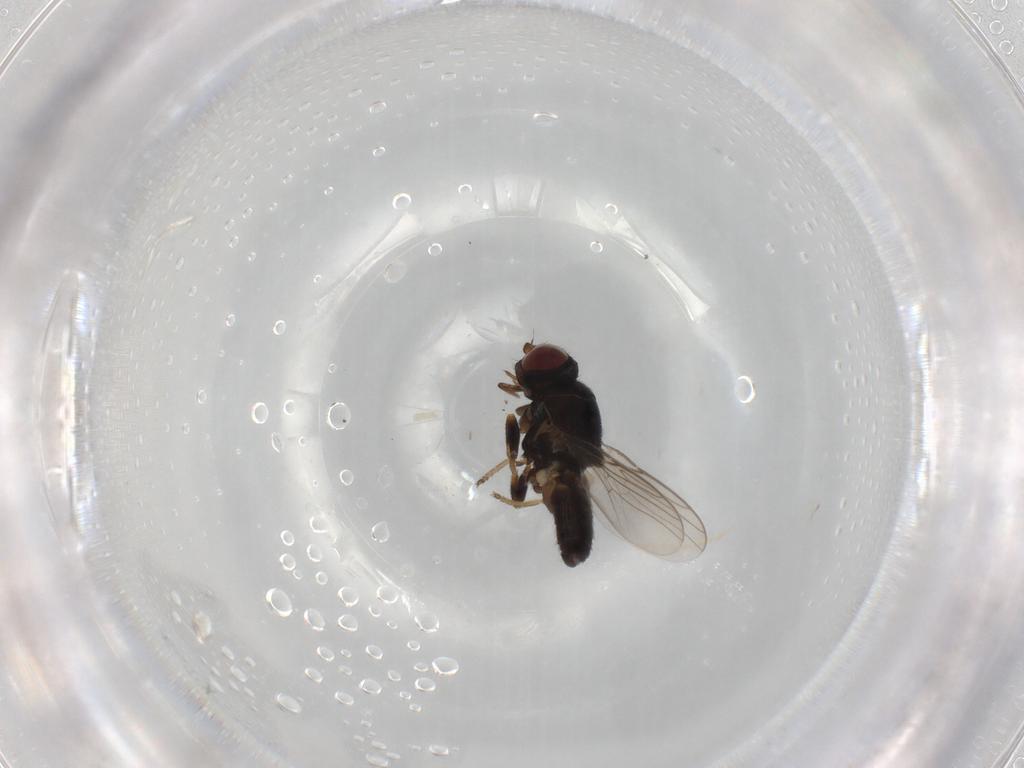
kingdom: Animalia
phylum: Arthropoda
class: Insecta
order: Diptera
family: Chloropidae
